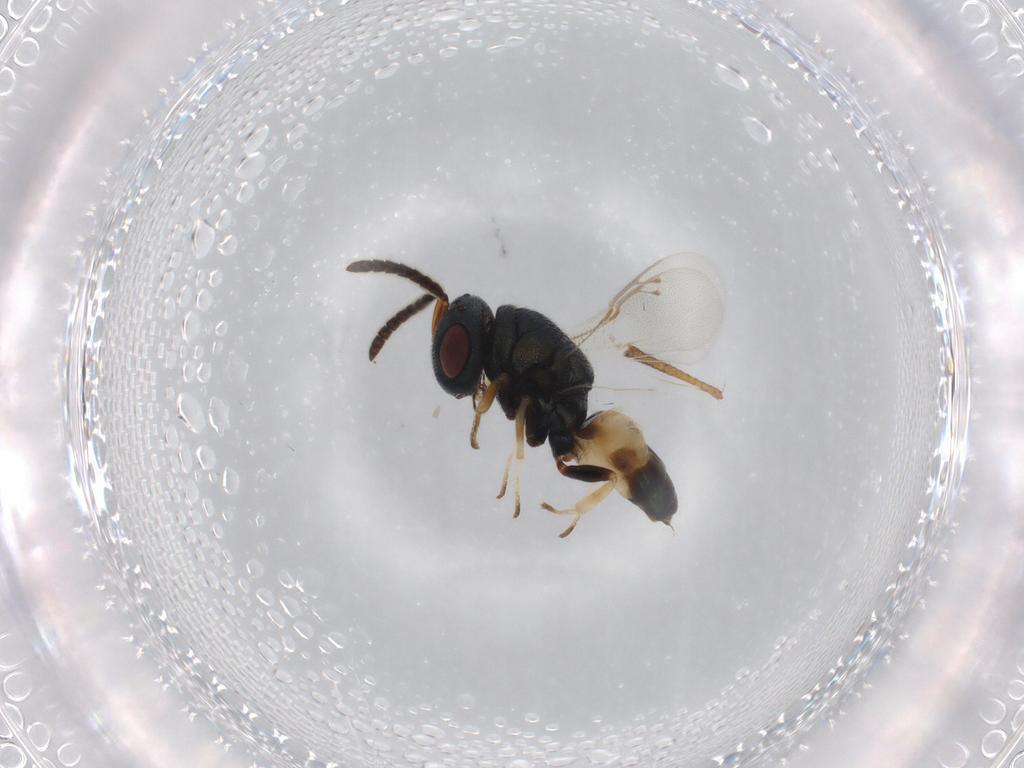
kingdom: Animalia
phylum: Arthropoda
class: Insecta
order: Hymenoptera
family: Pteromalidae
